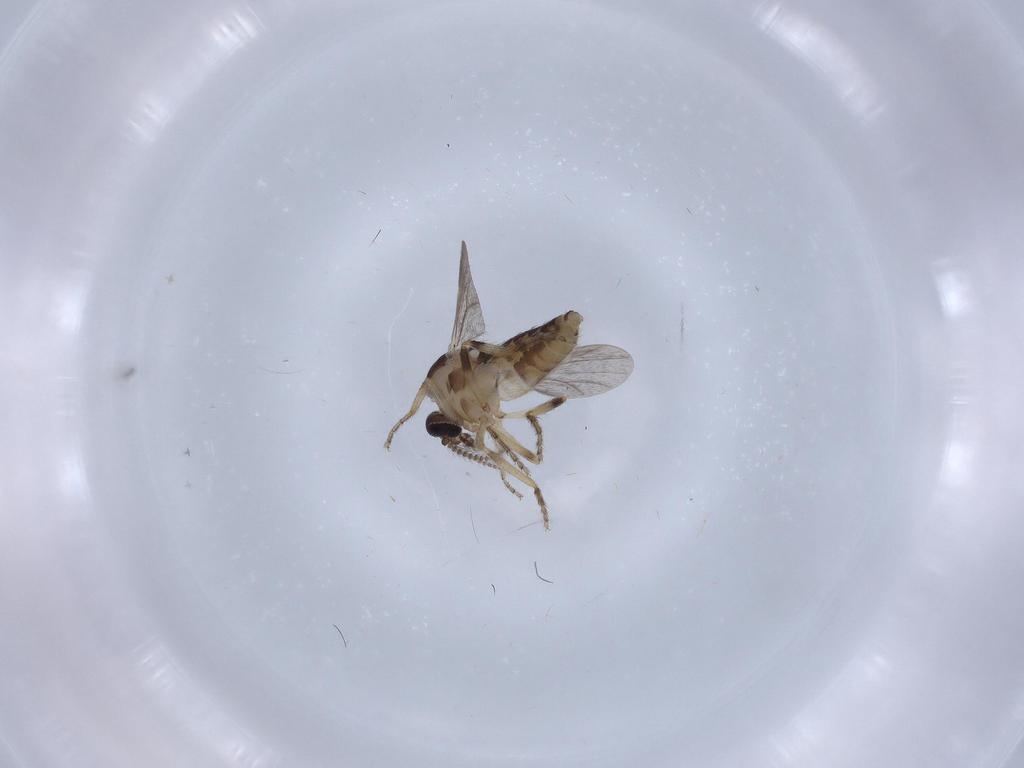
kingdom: Animalia
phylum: Arthropoda
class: Insecta
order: Diptera
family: Ceratopogonidae
